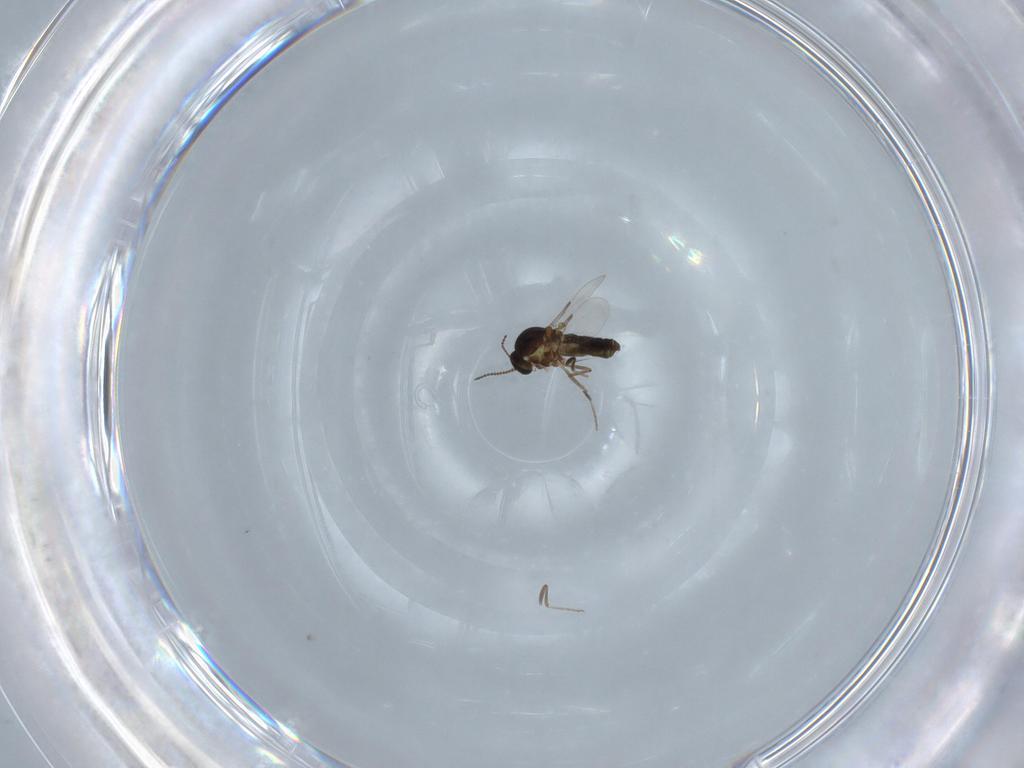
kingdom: Animalia
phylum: Arthropoda
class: Insecta
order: Diptera
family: Ceratopogonidae
